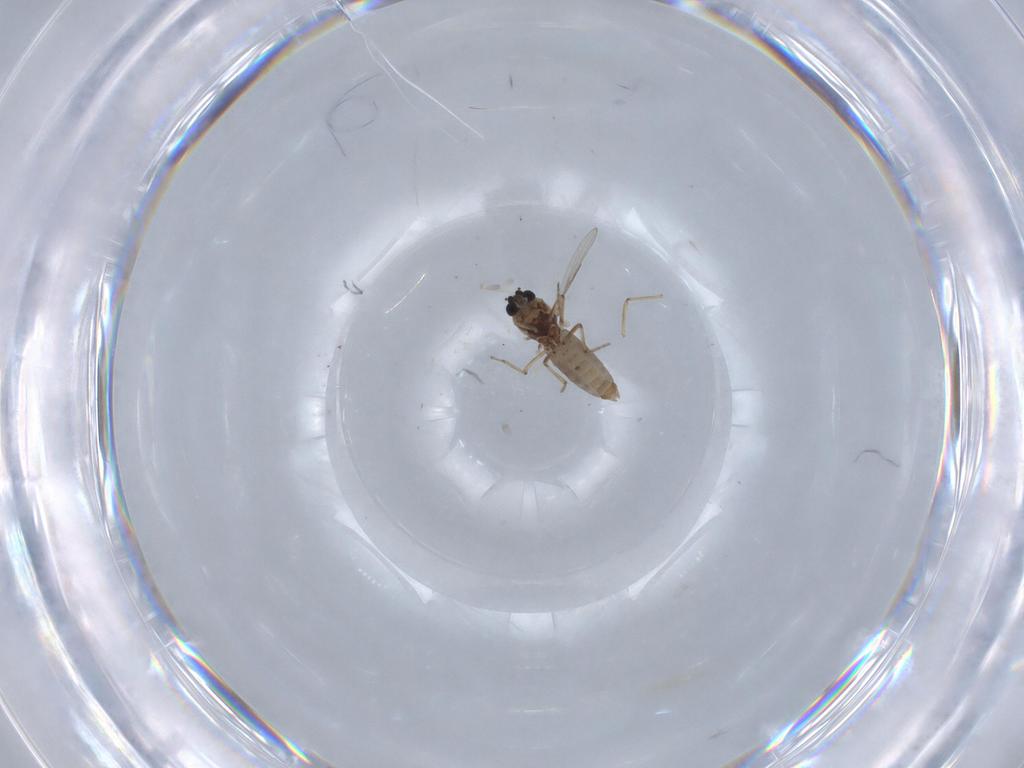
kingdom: Animalia
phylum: Arthropoda
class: Insecta
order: Diptera
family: Ceratopogonidae
